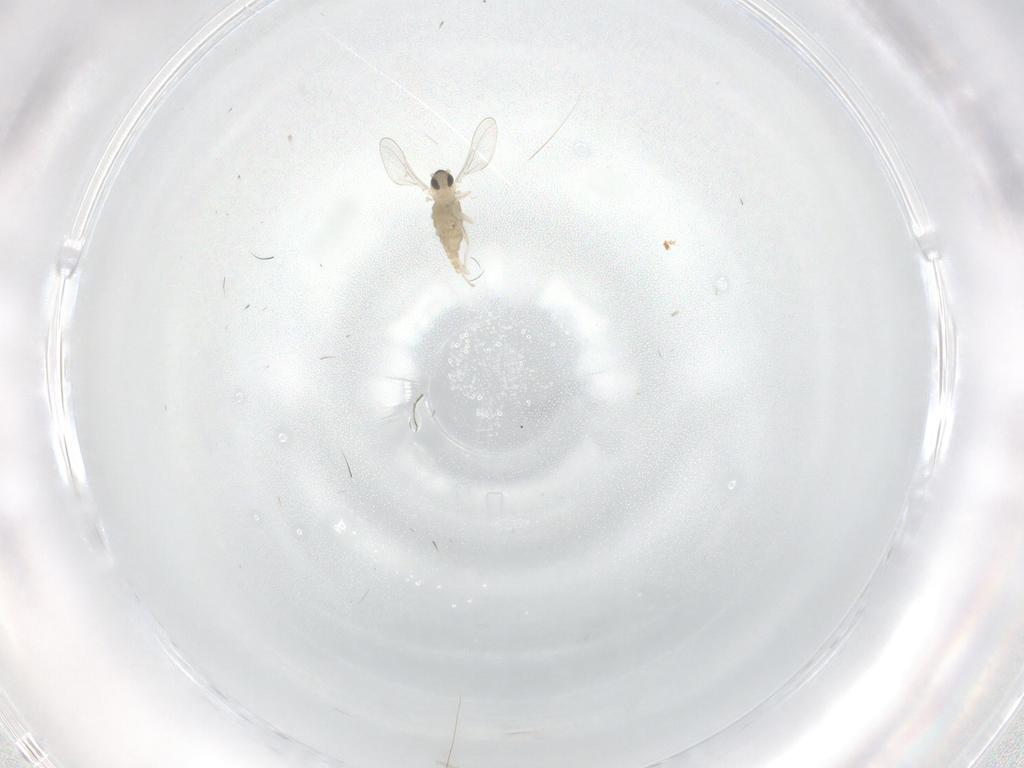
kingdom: Animalia
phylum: Arthropoda
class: Insecta
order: Diptera
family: Cecidomyiidae
